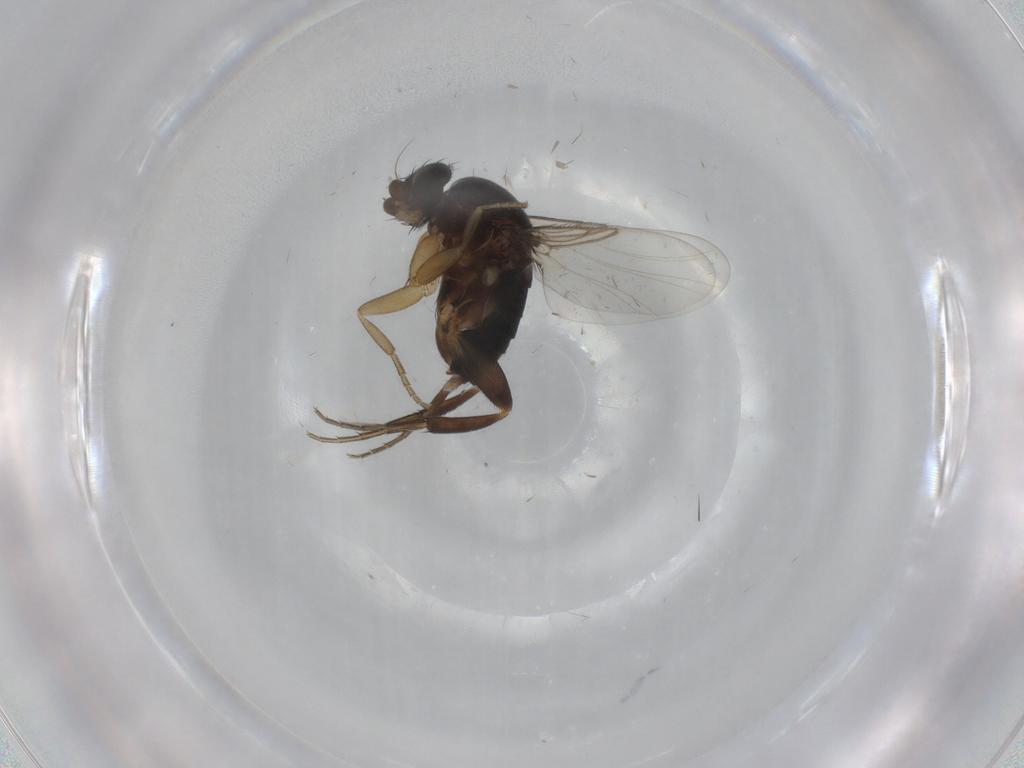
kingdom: Animalia
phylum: Arthropoda
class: Insecta
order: Diptera
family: Phoridae
